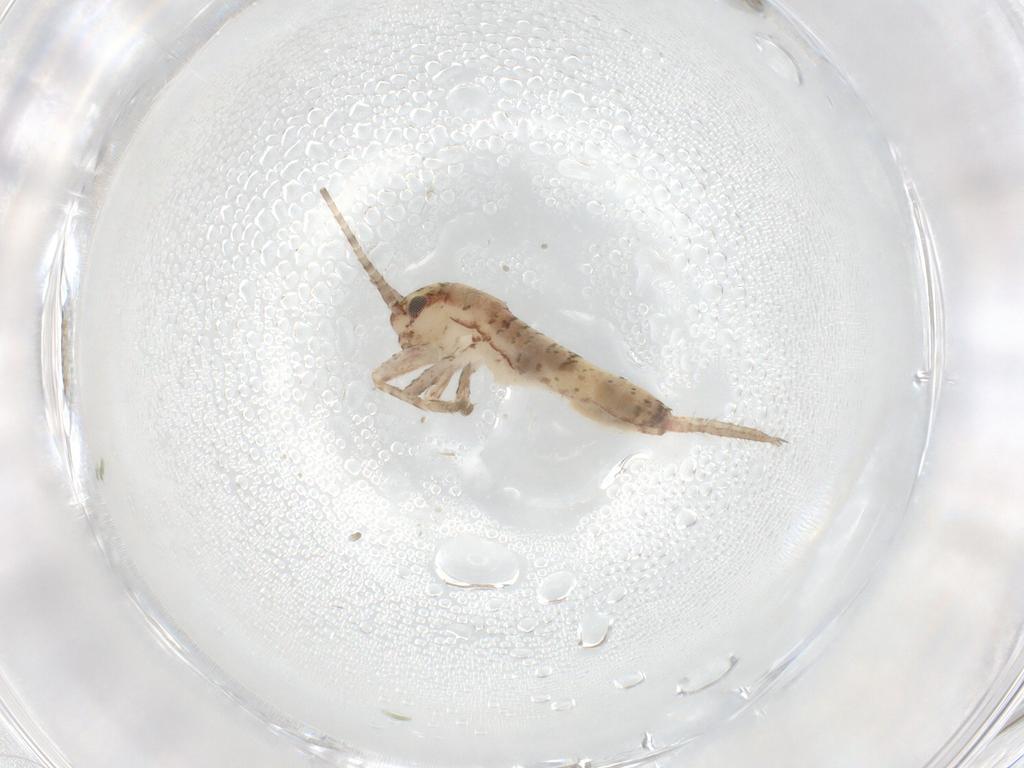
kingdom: Animalia
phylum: Arthropoda
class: Insecta
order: Orthoptera
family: Mogoplistidae
